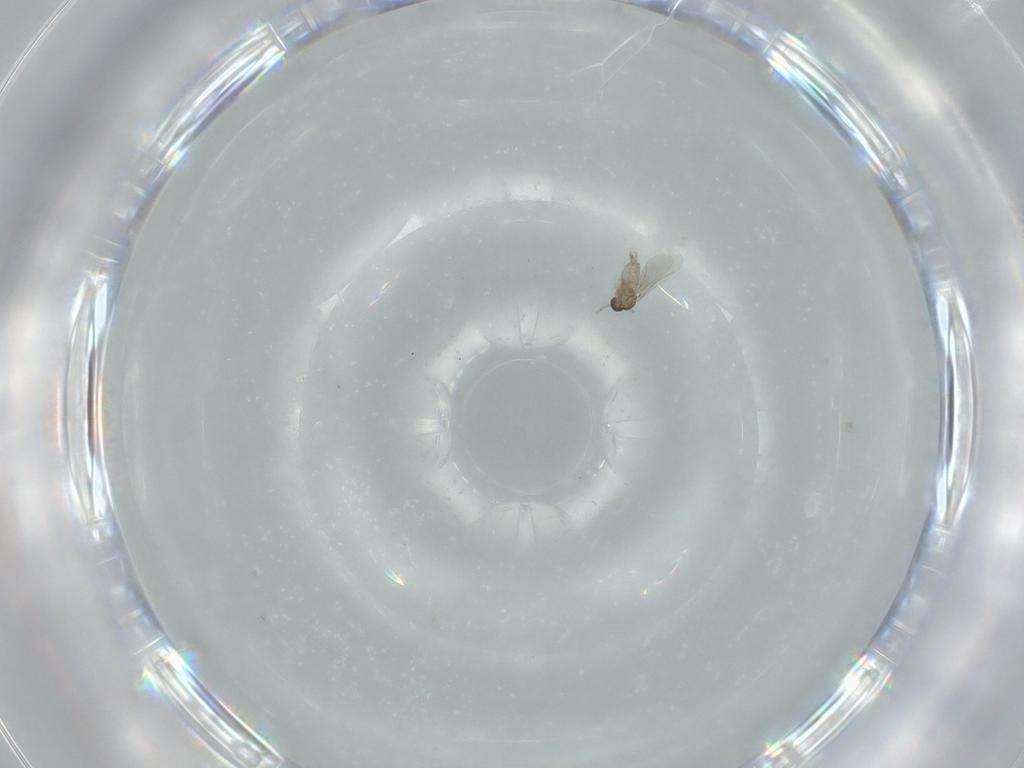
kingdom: Animalia
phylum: Arthropoda
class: Insecta
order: Diptera
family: Cecidomyiidae
